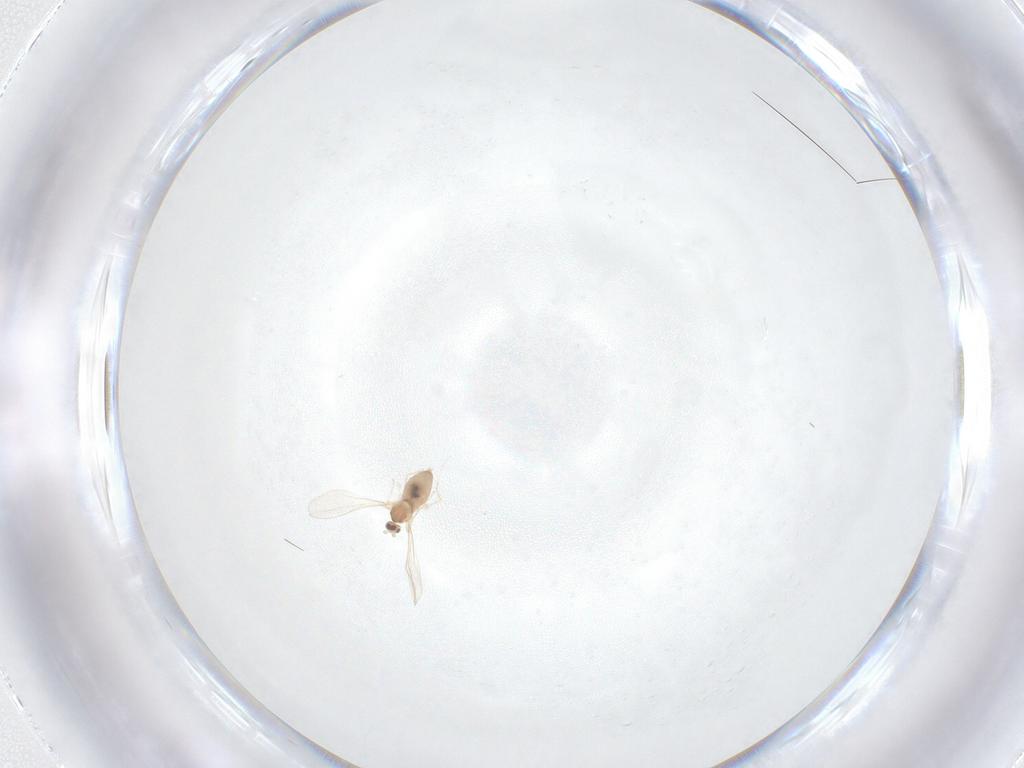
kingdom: Animalia
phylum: Arthropoda
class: Insecta
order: Diptera
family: Cecidomyiidae
